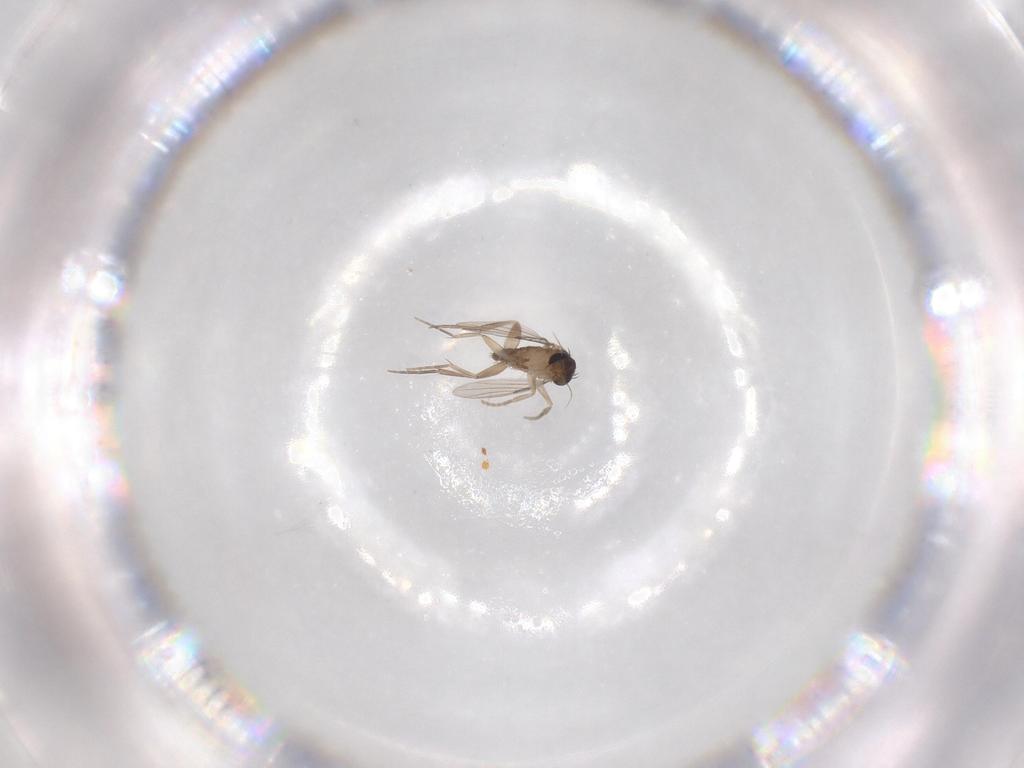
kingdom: Animalia
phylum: Arthropoda
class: Insecta
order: Diptera
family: Phoridae
